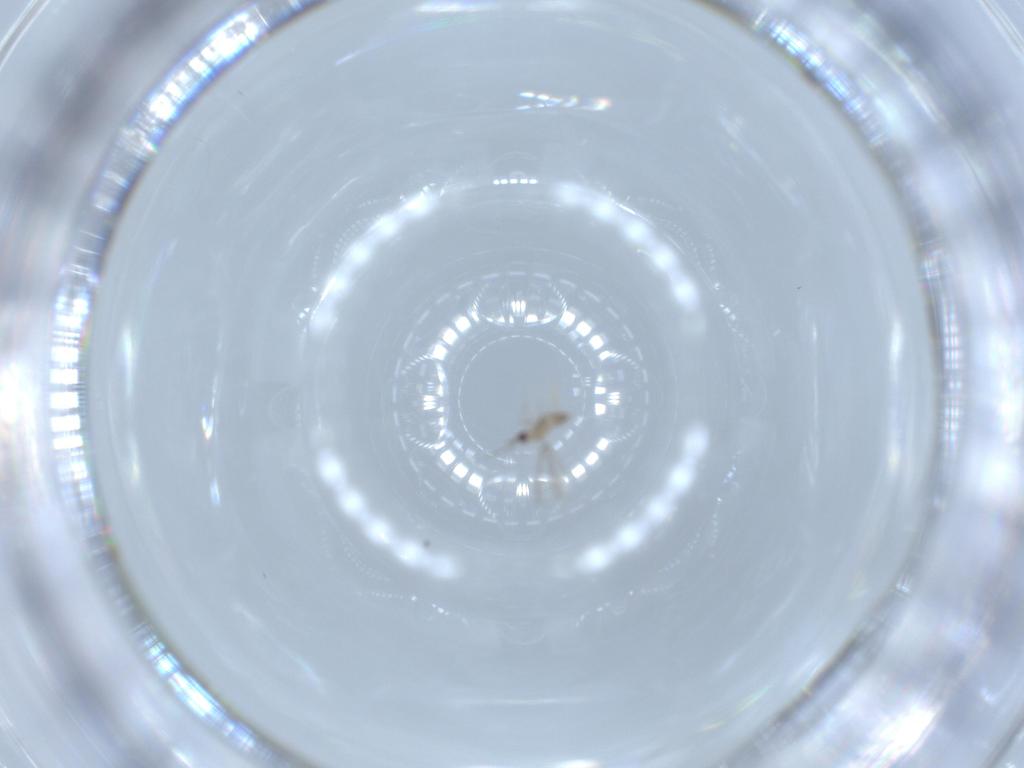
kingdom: Animalia
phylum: Arthropoda
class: Insecta
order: Hymenoptera
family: Mymaridae
